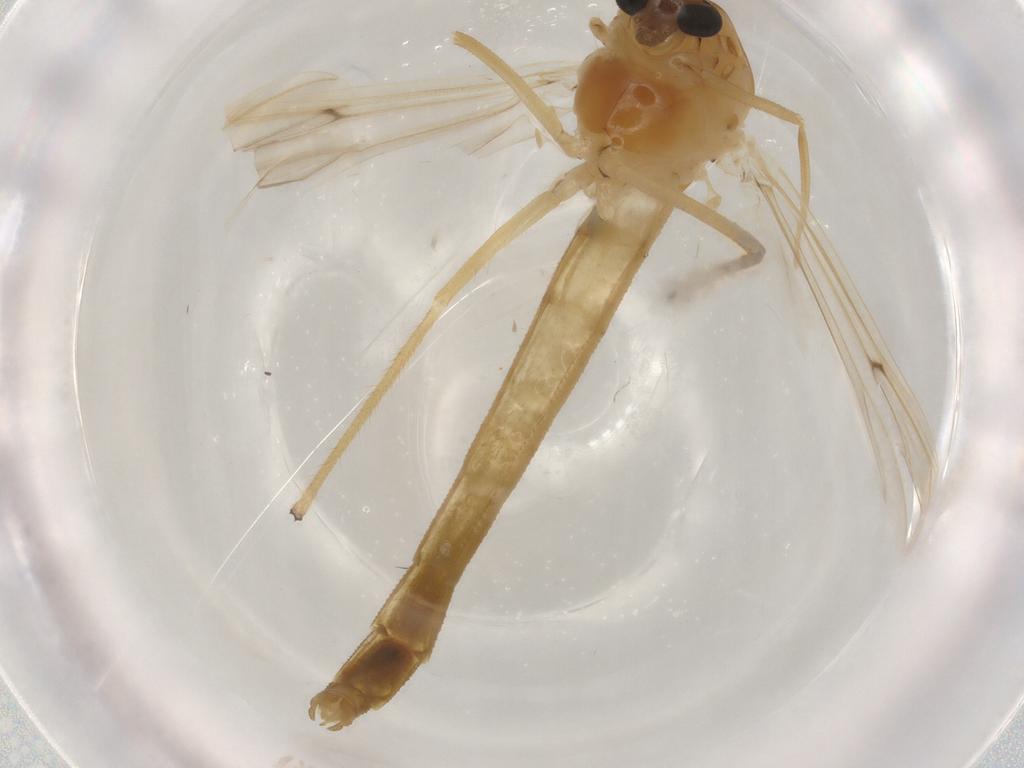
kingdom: Animalia
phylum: Arthropoda
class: Insecta
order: Diptera
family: Chironomidae
